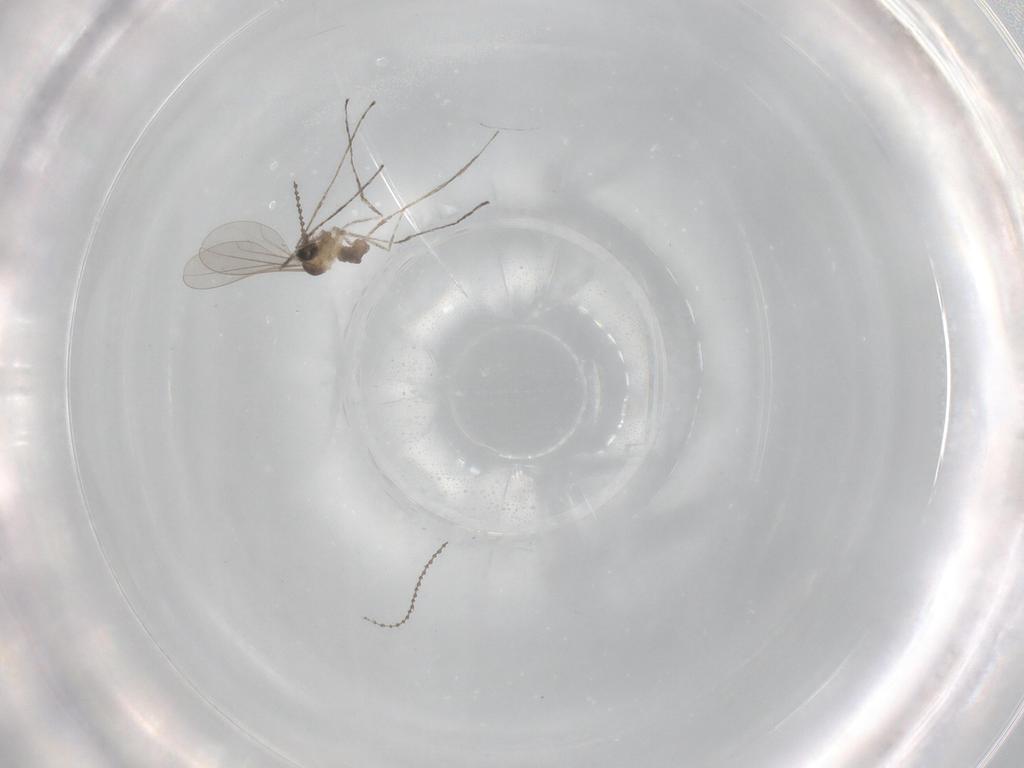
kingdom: Animalia
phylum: Arthropoda
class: Insecta
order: Diptera
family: Cecidomyiidae
